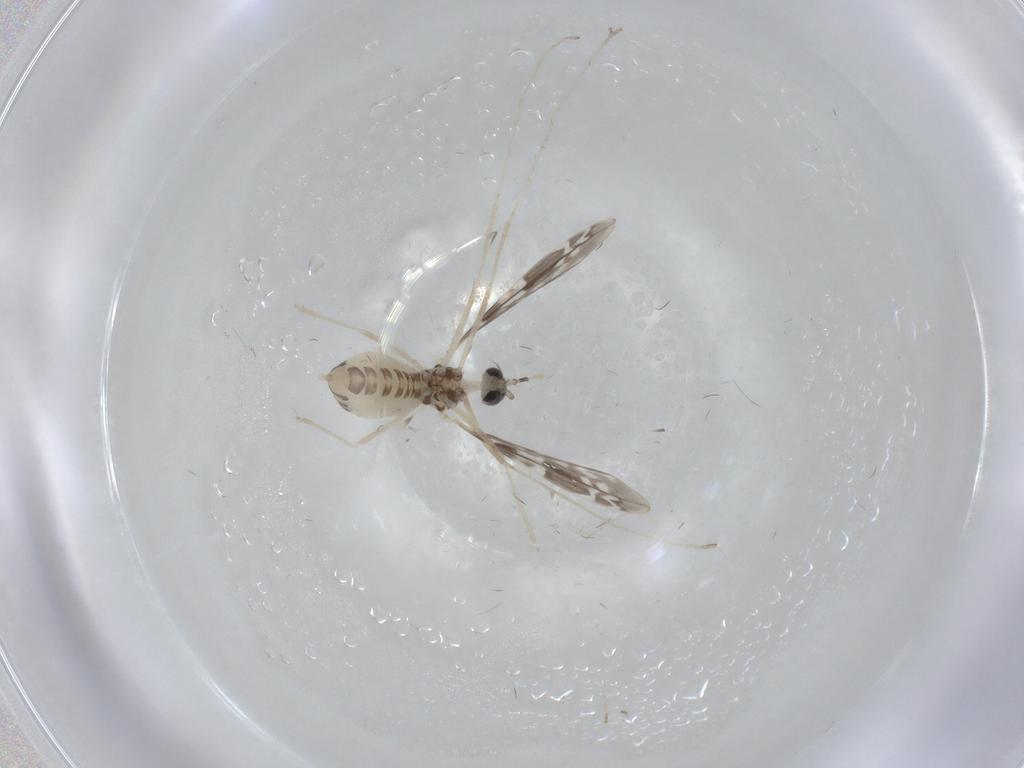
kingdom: Animalia
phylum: Arthropoda
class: Insecta
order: Diptera
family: Cecidomyiidae
